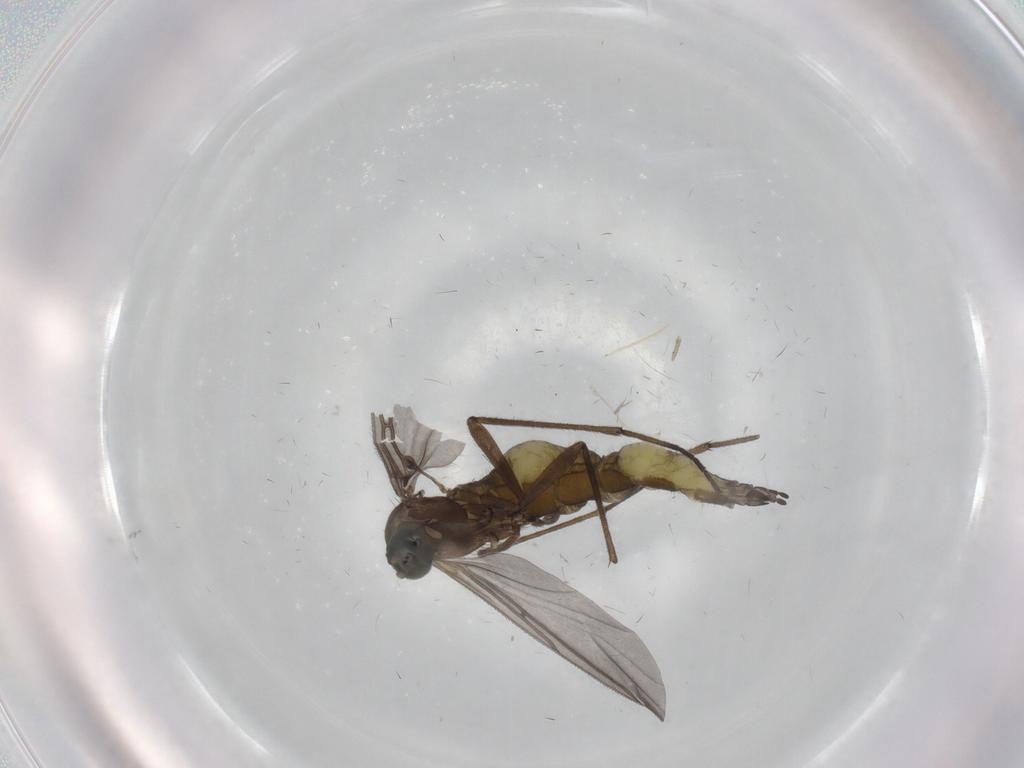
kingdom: Animalia
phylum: Arthropoda
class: Insecta
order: Diptera
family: Sciaridae
